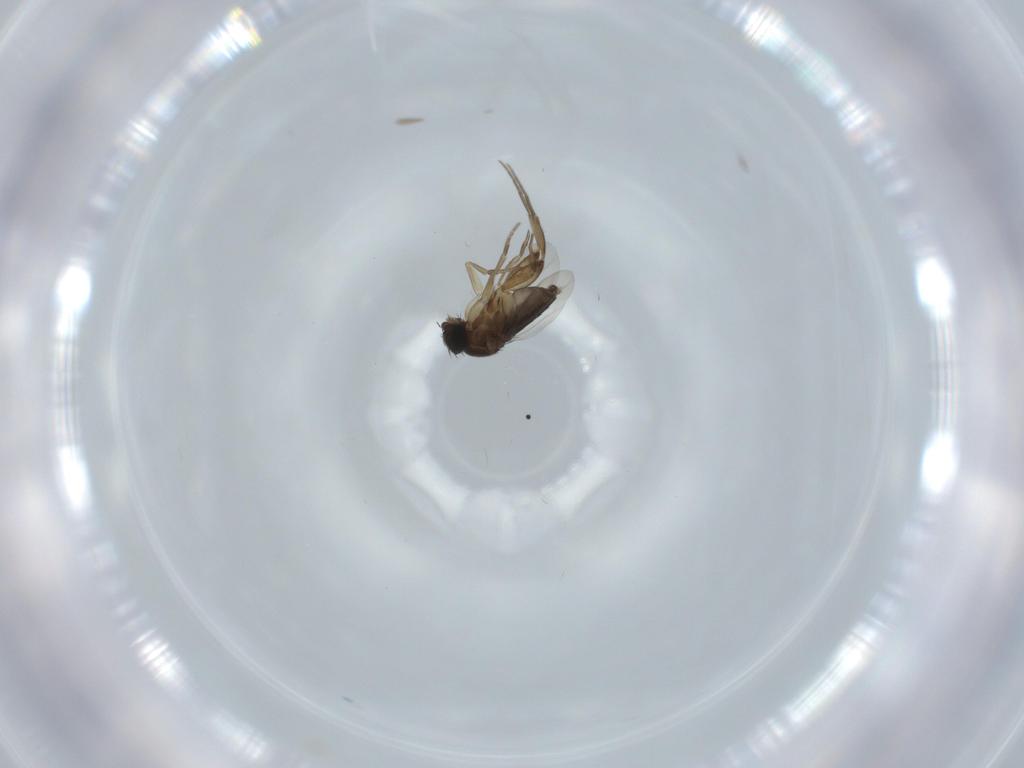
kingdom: Animalia
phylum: Arthropoda
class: Insecta
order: Diptera
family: Phoridae
